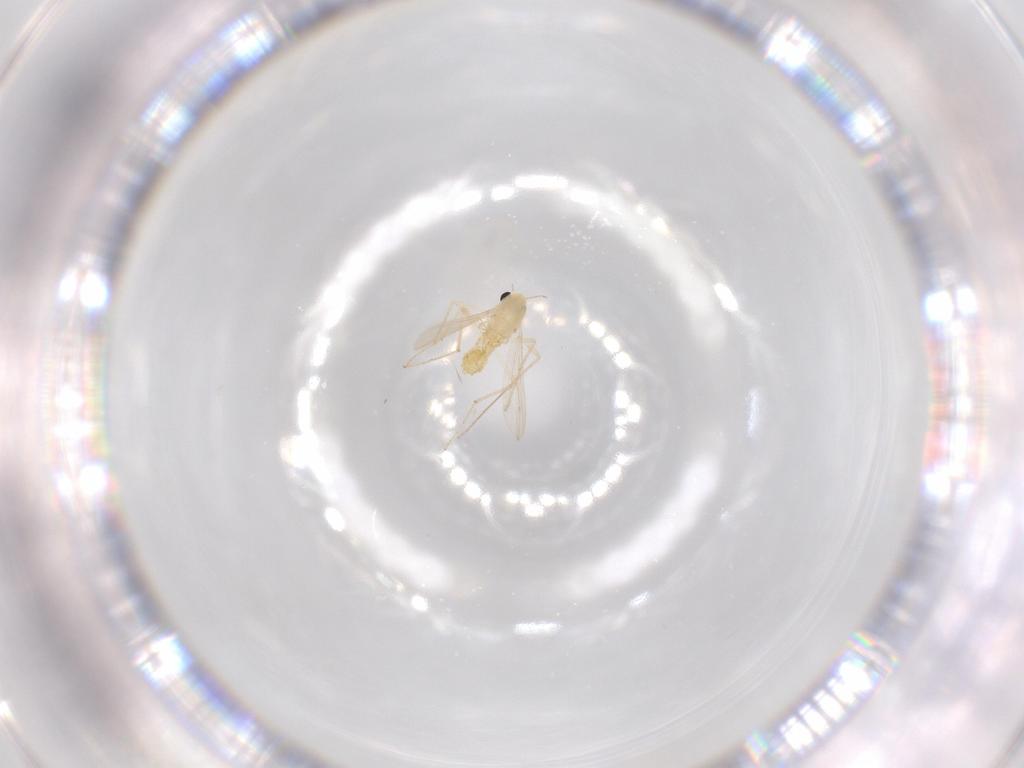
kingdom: Animalia
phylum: Arthropoda
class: Insecta
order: Diptera
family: Chironomidae
